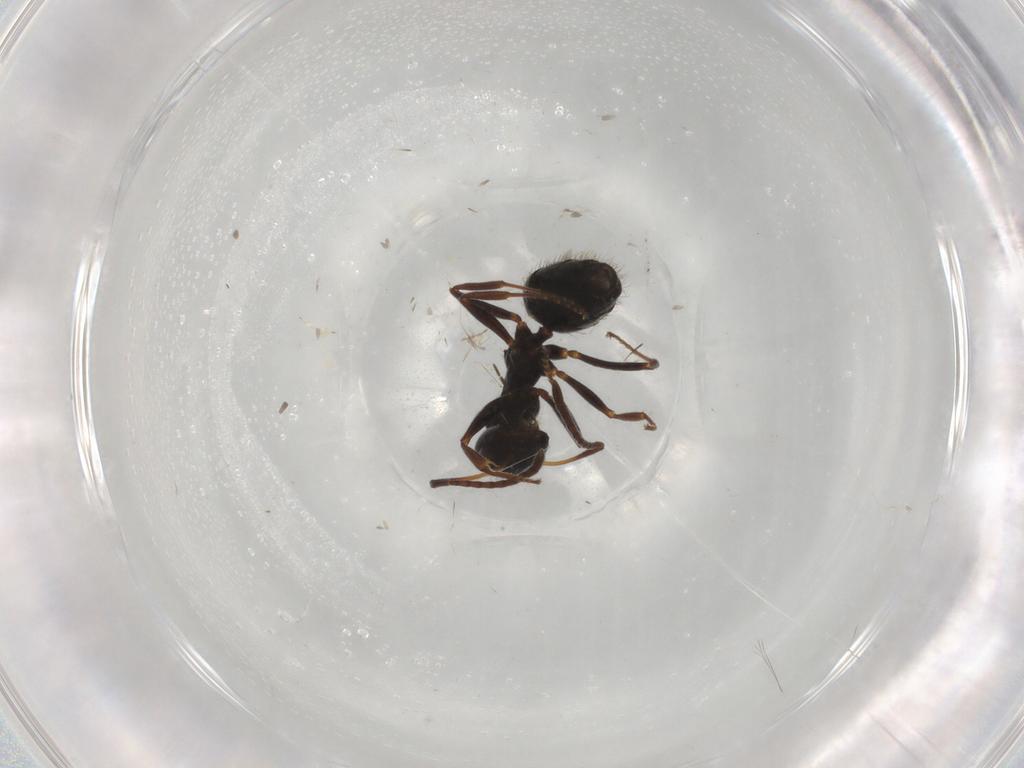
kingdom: Animalia
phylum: Arthropoda
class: Insecta
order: Hymenoptera
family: Formicidae
